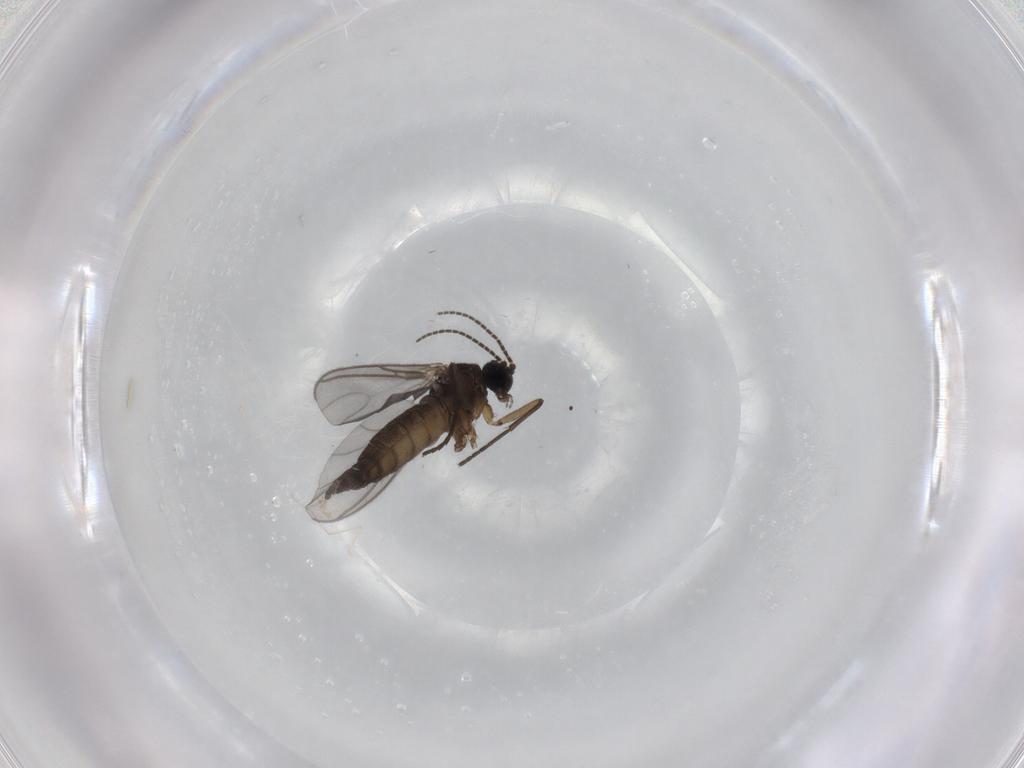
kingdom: Animalia
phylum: Arthropoda
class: Insecta
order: Diptera
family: Sciaridae
